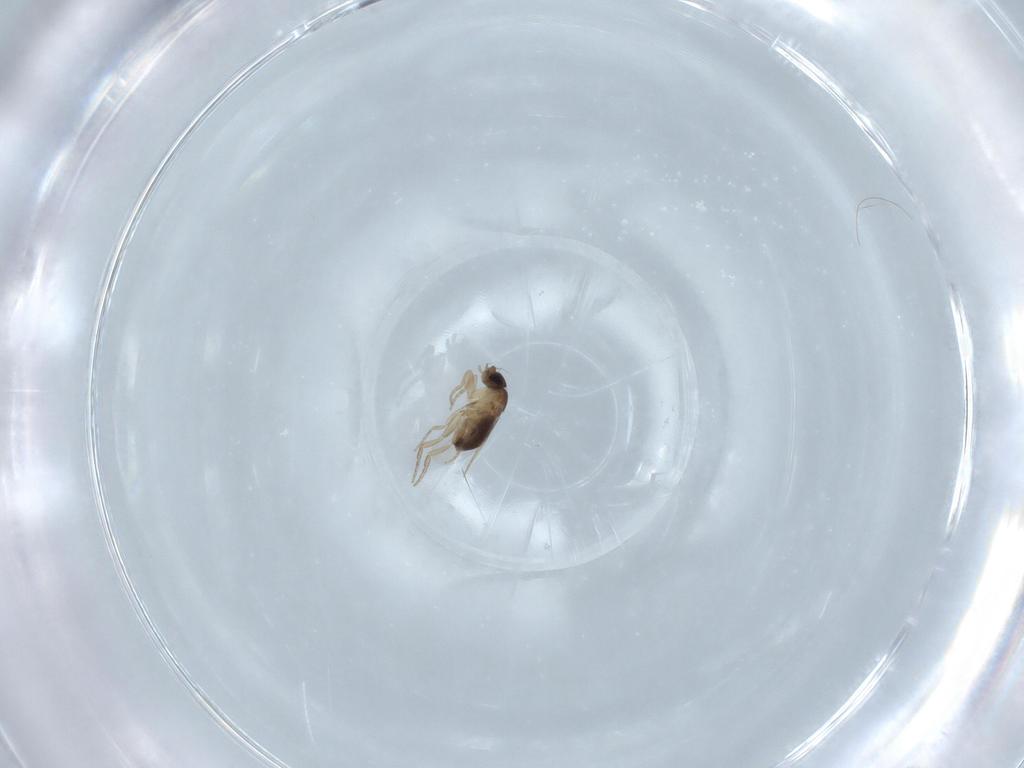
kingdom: Animalia
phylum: Arthropoda
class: Insecta
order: Diptera
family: Phoridae
